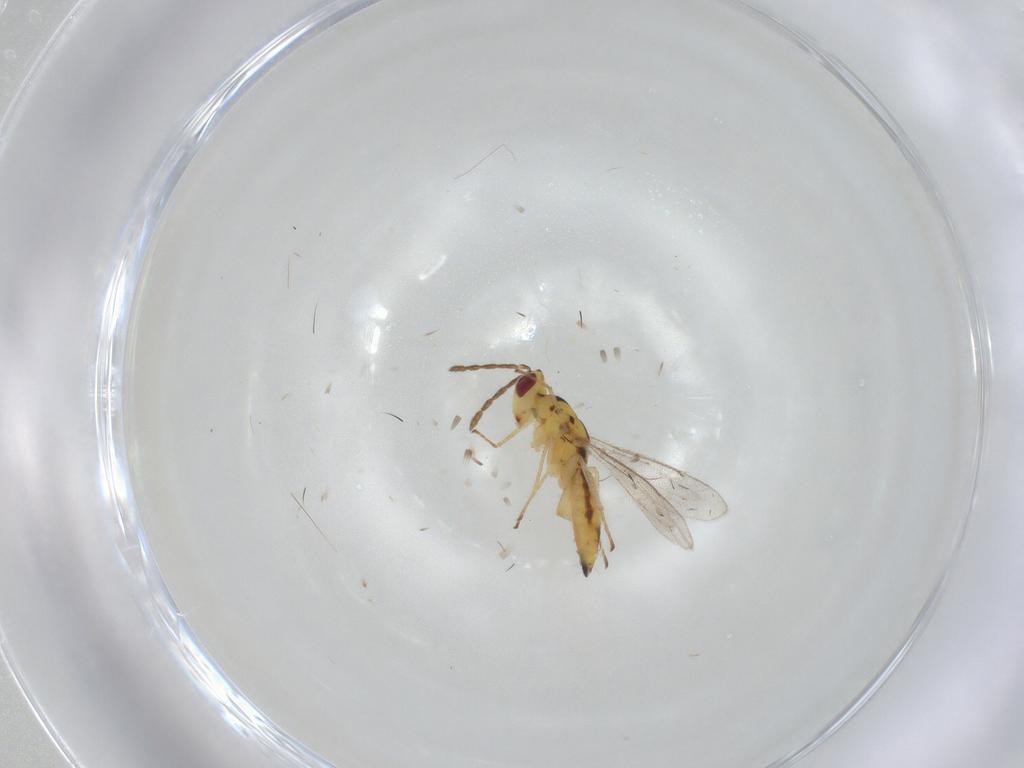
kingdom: Animalia
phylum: Arthropoda
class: Insecta
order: Hymenoptera
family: Eulophidae
